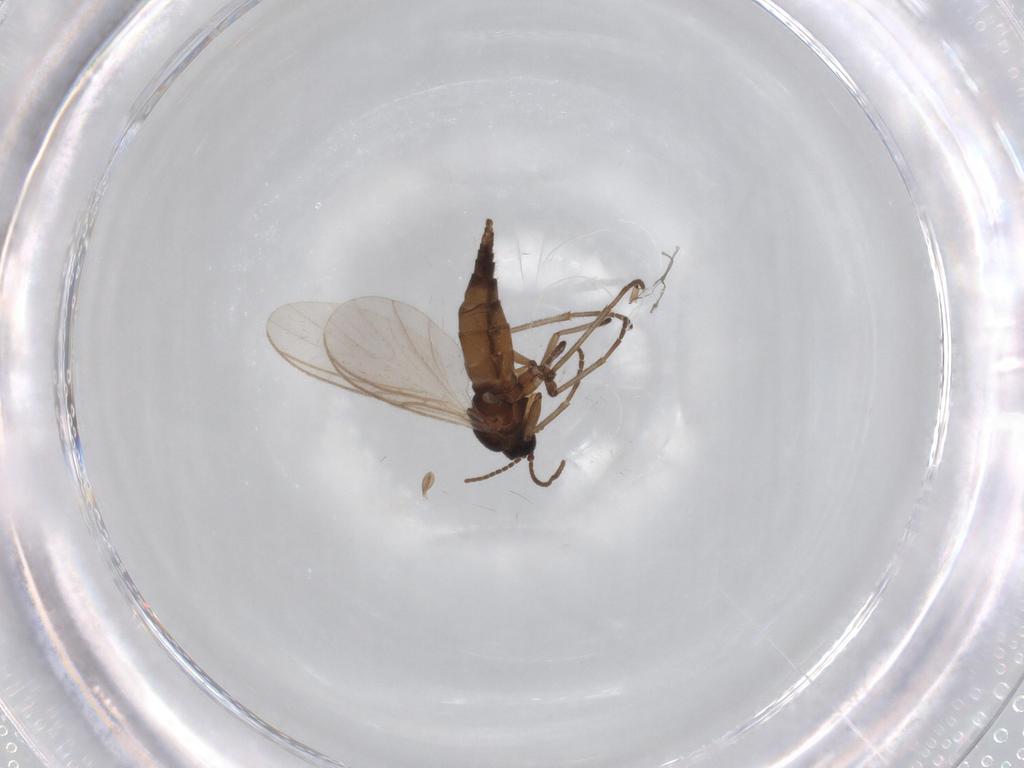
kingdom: Animalia
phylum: Arthropoda
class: Insecta
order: Diptera
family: Sciaridae
